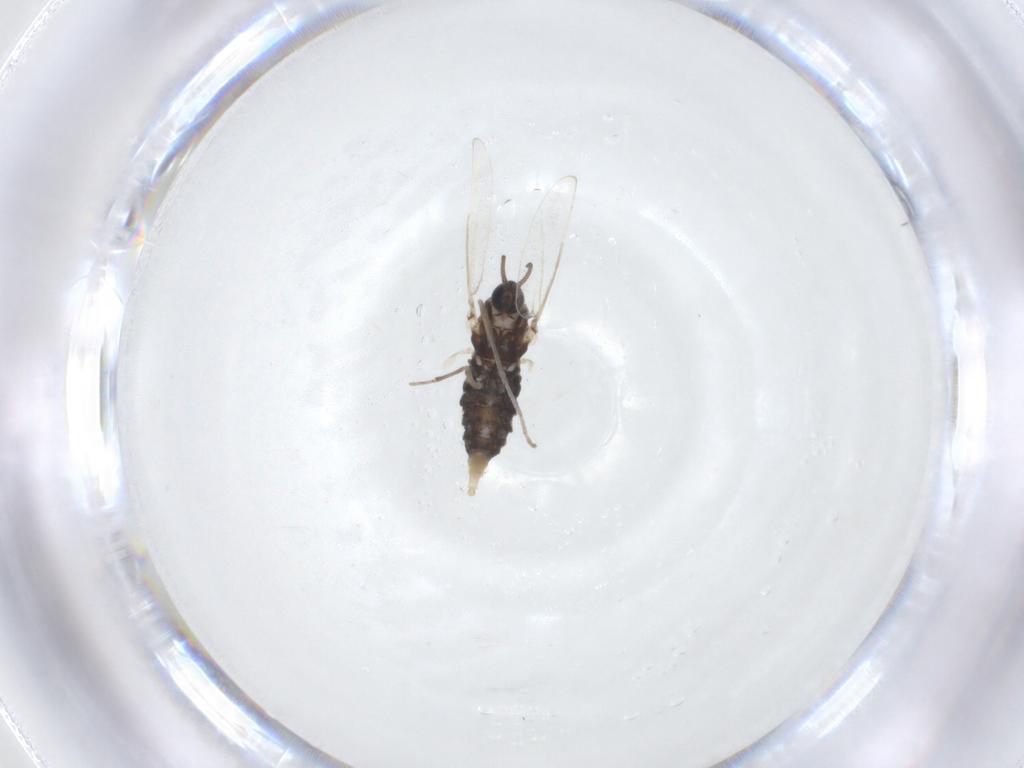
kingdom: Animalia
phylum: Arthropoda
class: Insecta
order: Diptera
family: Cecidomyiidae
